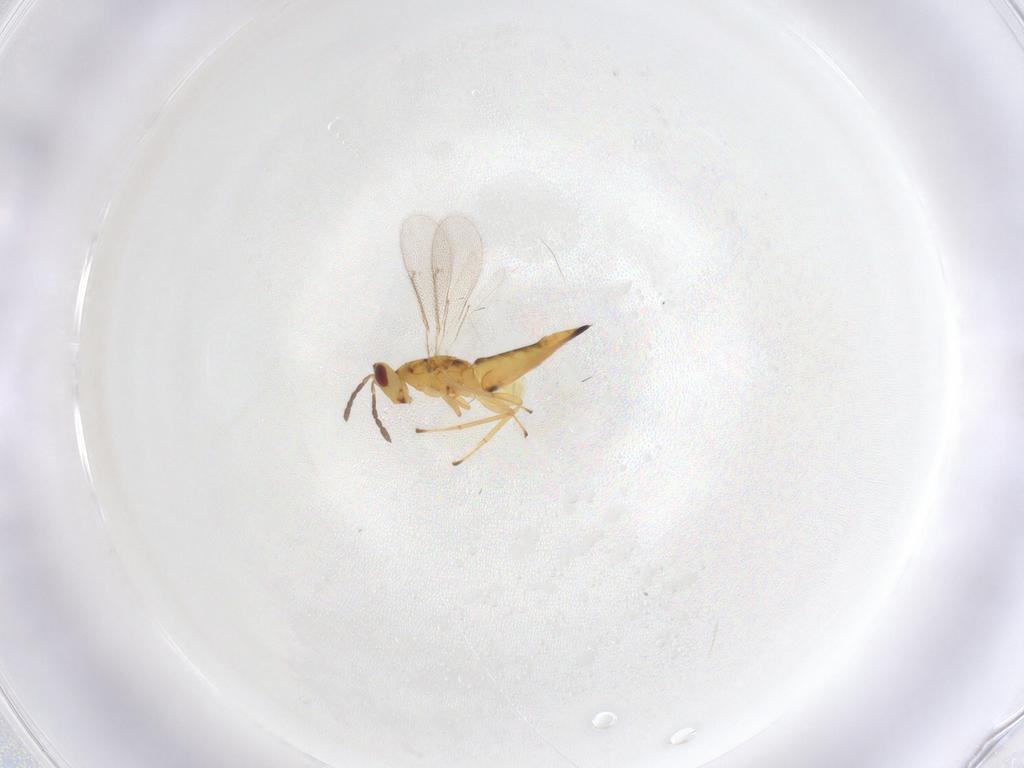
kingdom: Animalia
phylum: Arthropoda
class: Insecta
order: Hymenoptera
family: Eulophidae
